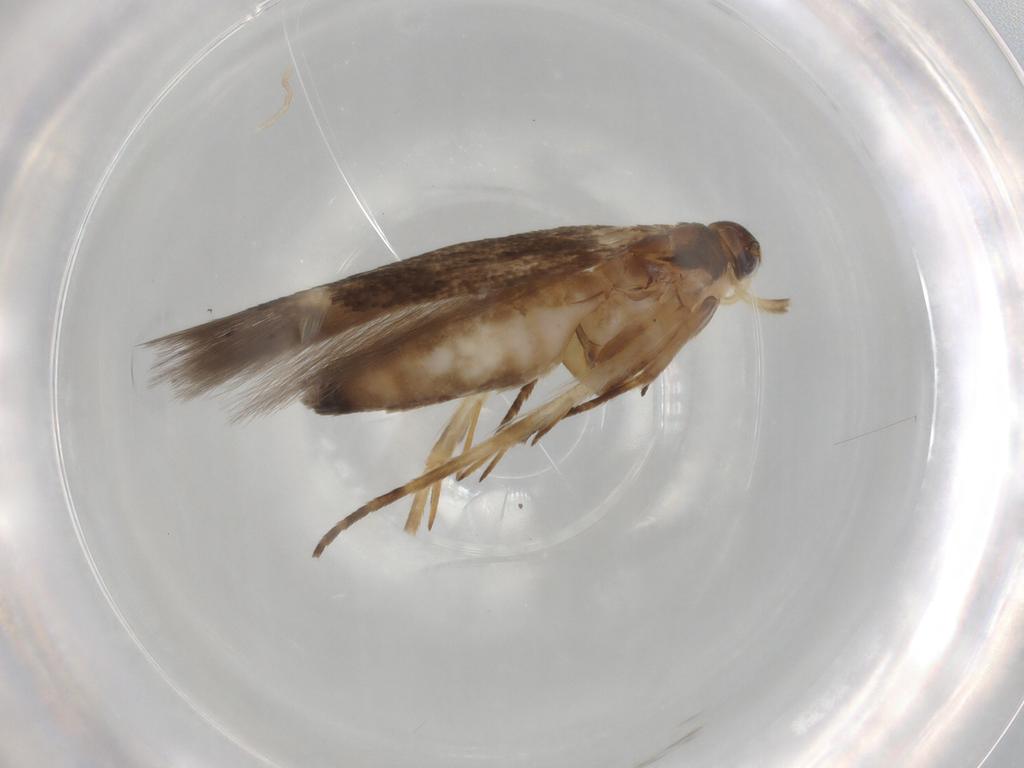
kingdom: Animalia
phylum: Arthropoda
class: Insecta
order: Lepidoptera
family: Gelechiidae
